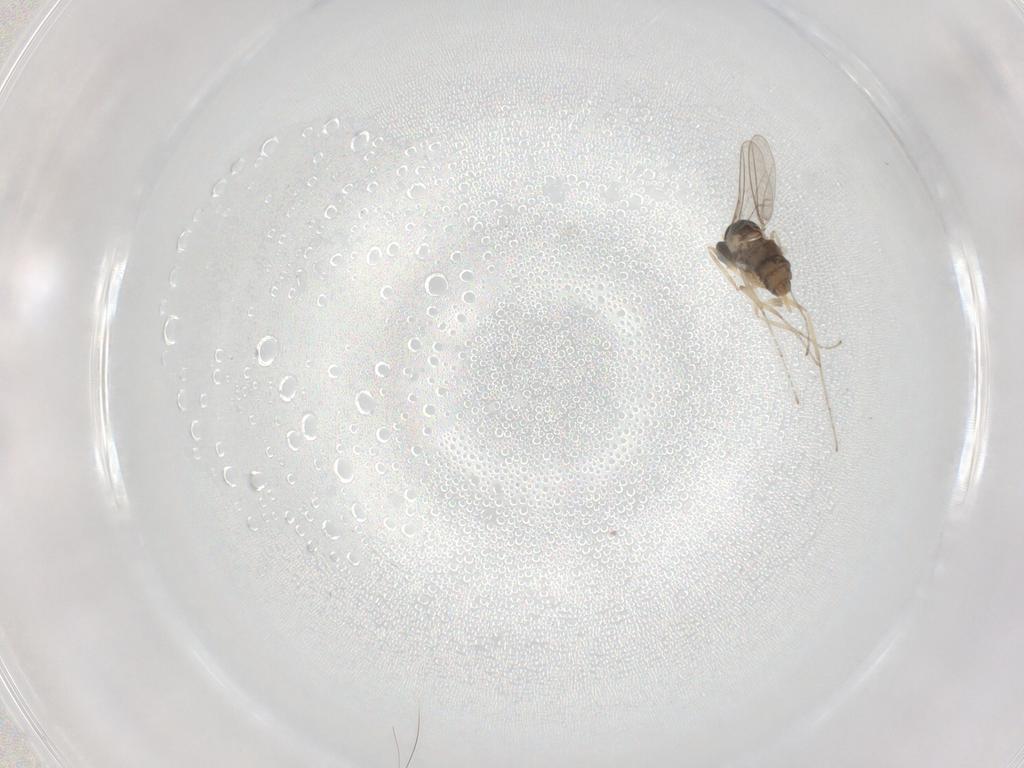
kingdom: Animalia
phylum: Arthropoda
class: Insecta
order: Diptera
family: Cecidomyiidae
